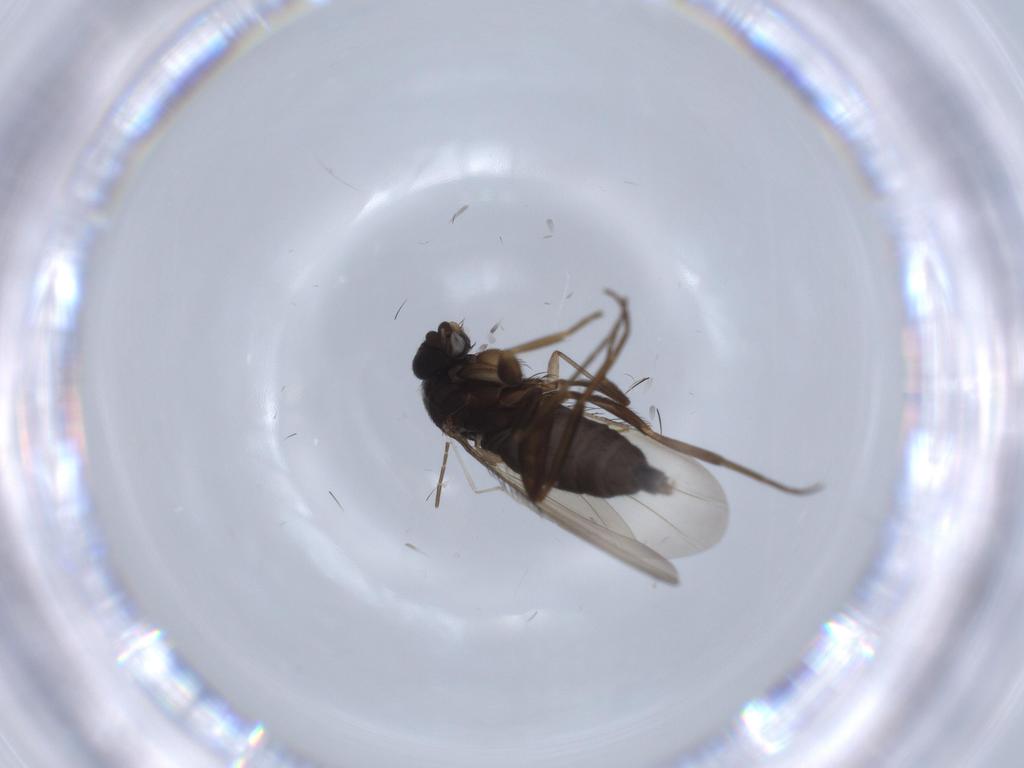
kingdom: Animalia
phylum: Arthropoda
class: Insecta
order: Diptera
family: Phoridae
